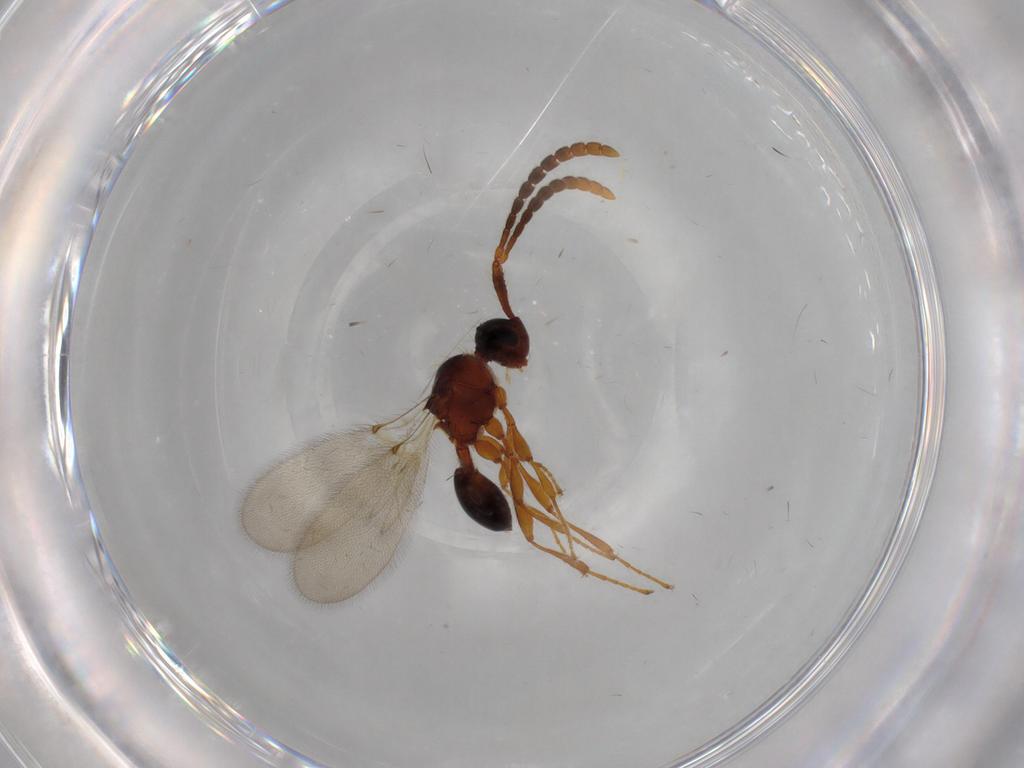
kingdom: Animalia
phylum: Arthropoda
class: Insecta
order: Hymenoptera
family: Diapriidae
